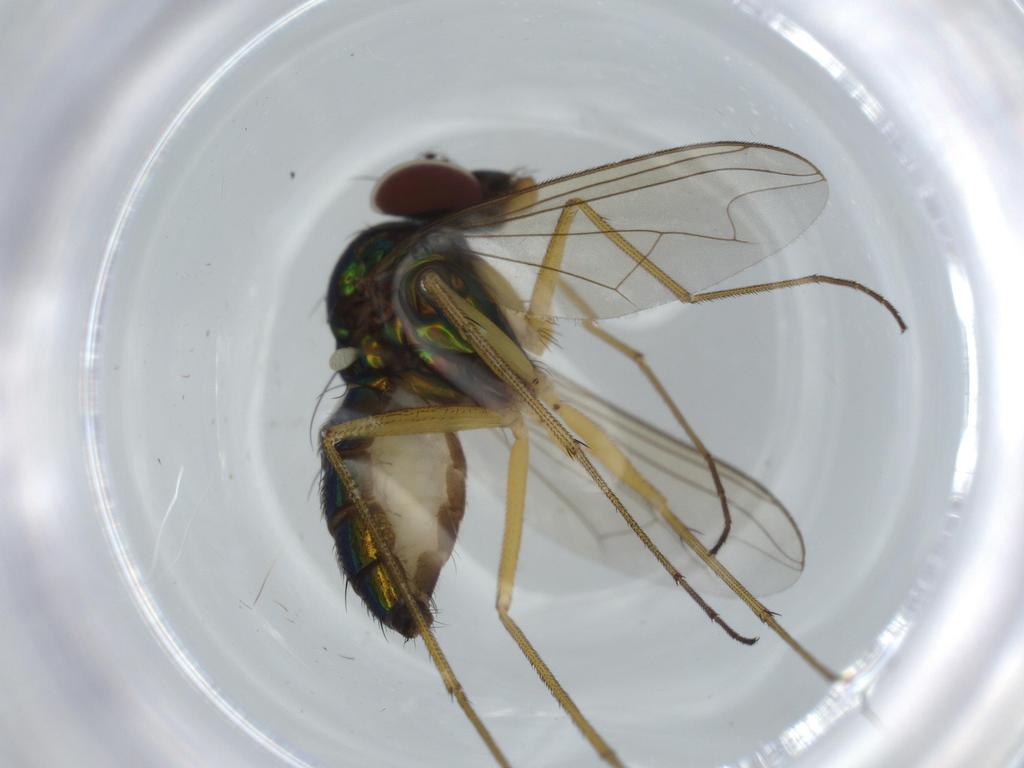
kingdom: Animalia
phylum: Arthropoda
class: Insecta
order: Diptera
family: Dolichopodidae
